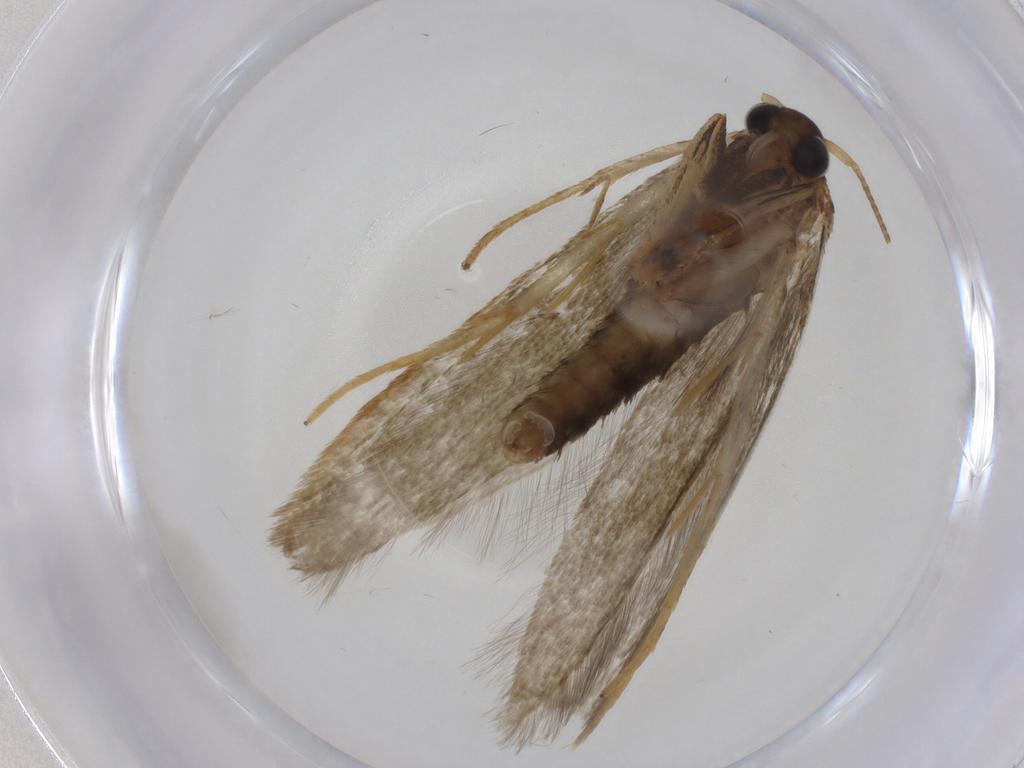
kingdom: Animalia
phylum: Arthropoda
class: Insecta
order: Lepidoptera
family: Blastobasidae
